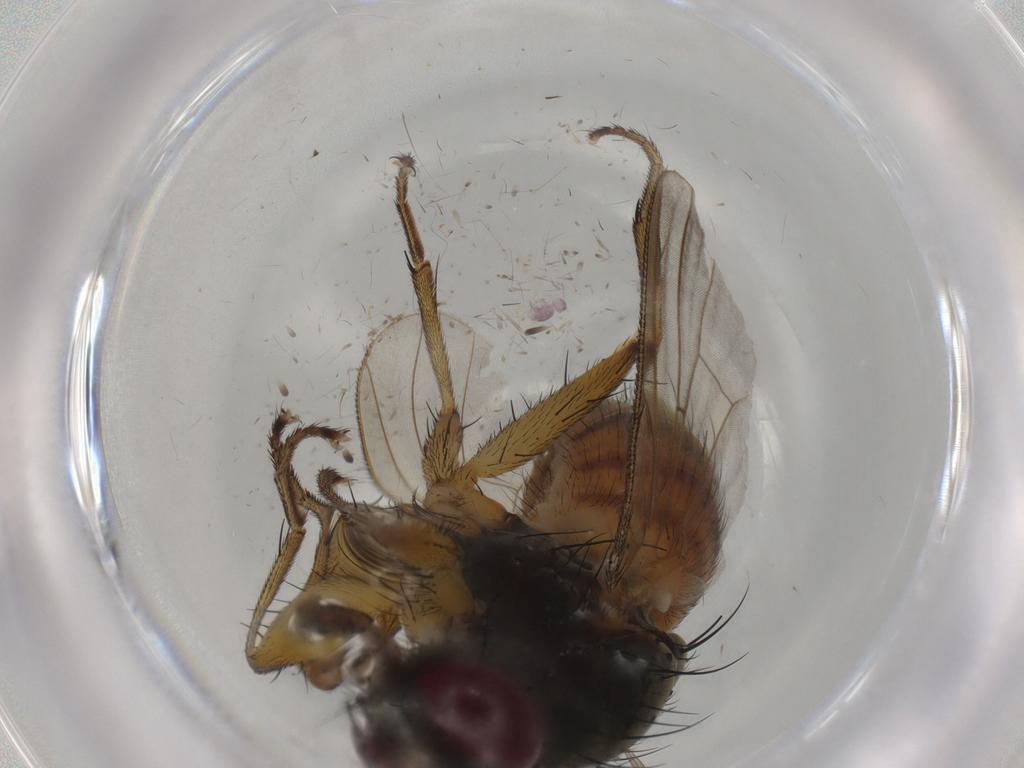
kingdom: Animalia
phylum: Arthropoda
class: Insecta
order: Diptera
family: Muscidae
